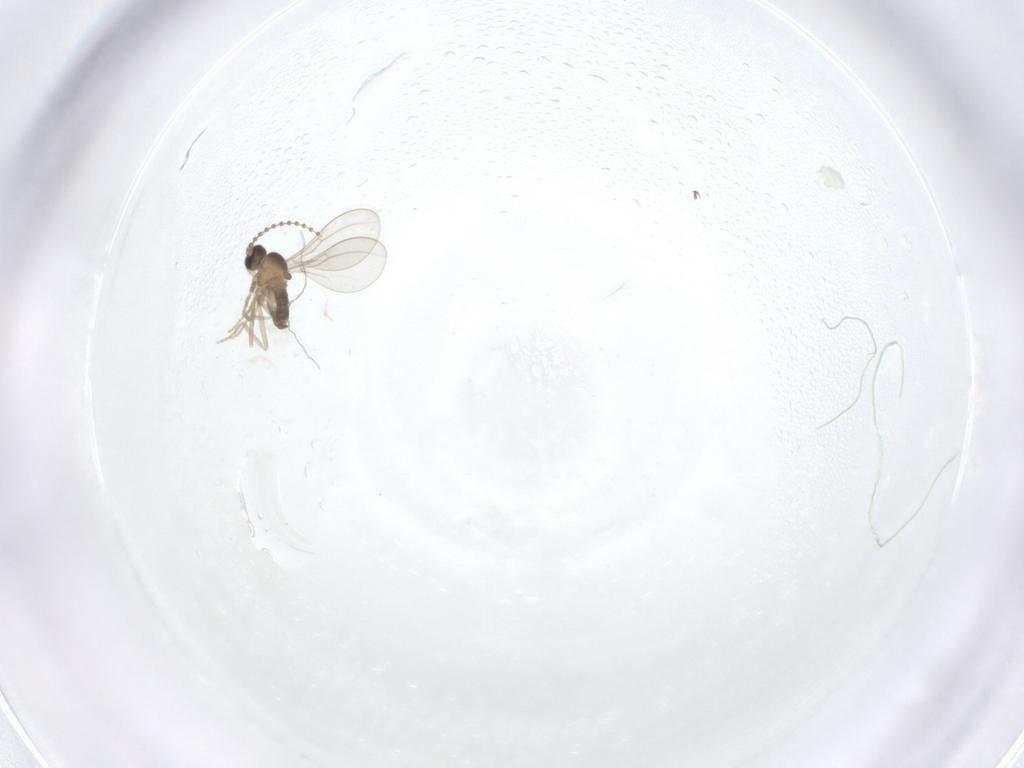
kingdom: Animalia
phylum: Arthropoda
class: Insecta
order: Diptera
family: Cecidomyiidae
